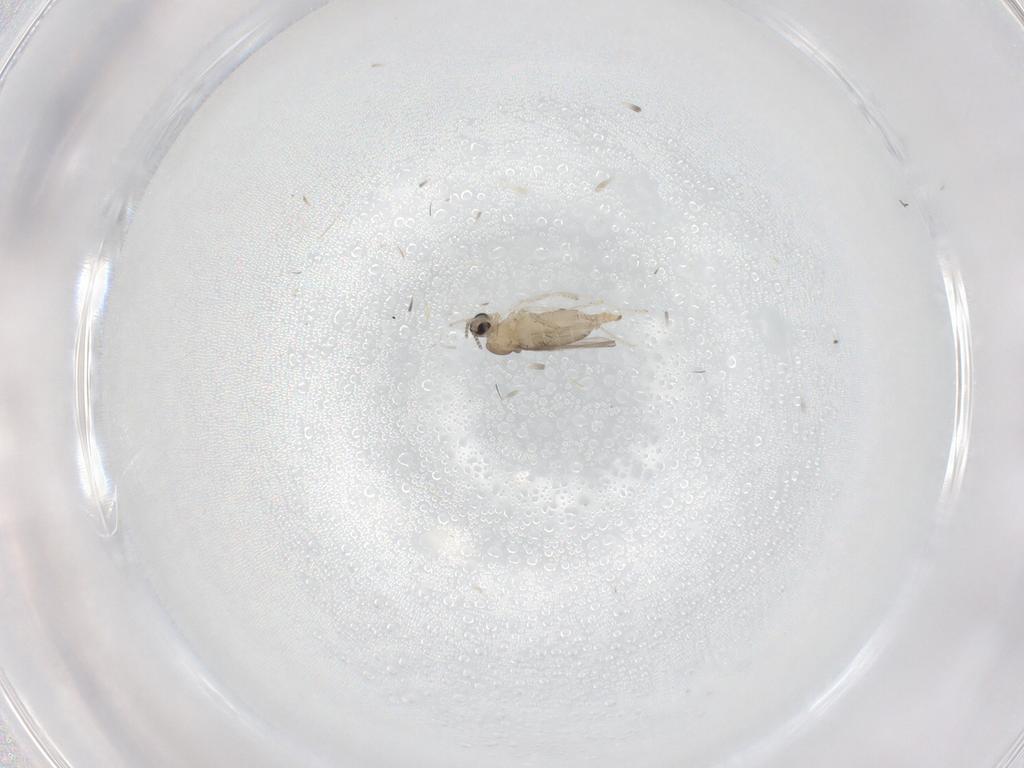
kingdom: Animalia
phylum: Arthropoda
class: Insecta
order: Diptera
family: Cecidomyiidae
